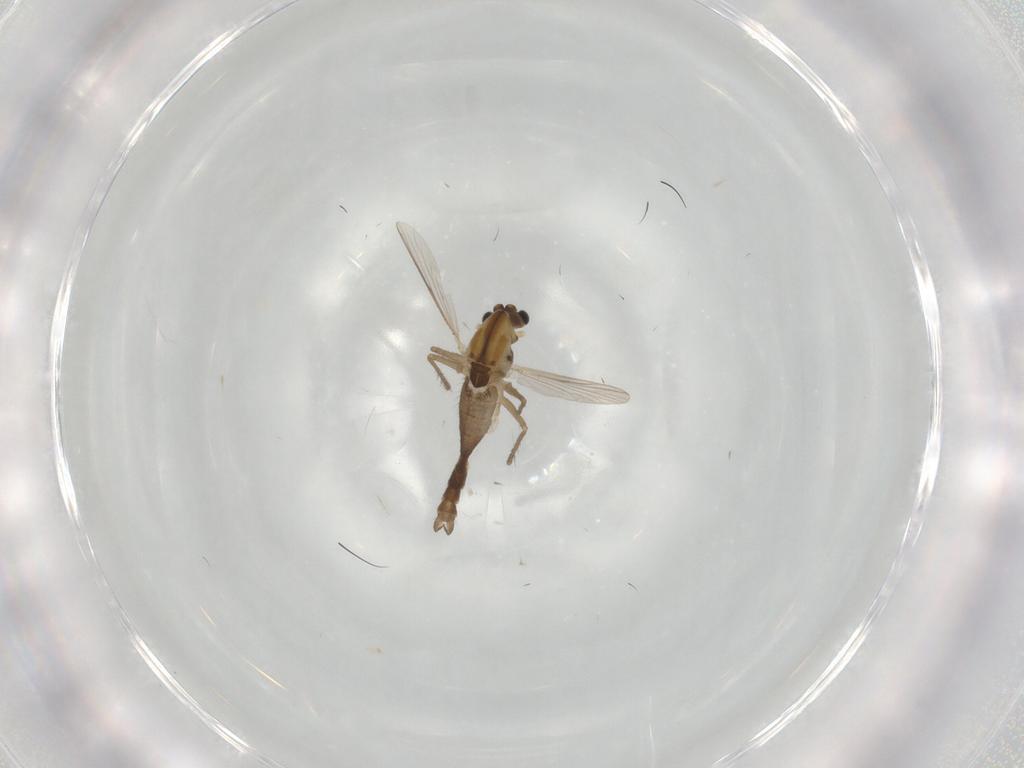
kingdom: Animalia
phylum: Arthropoda
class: Insecta
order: Diptera
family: Chironomidae
